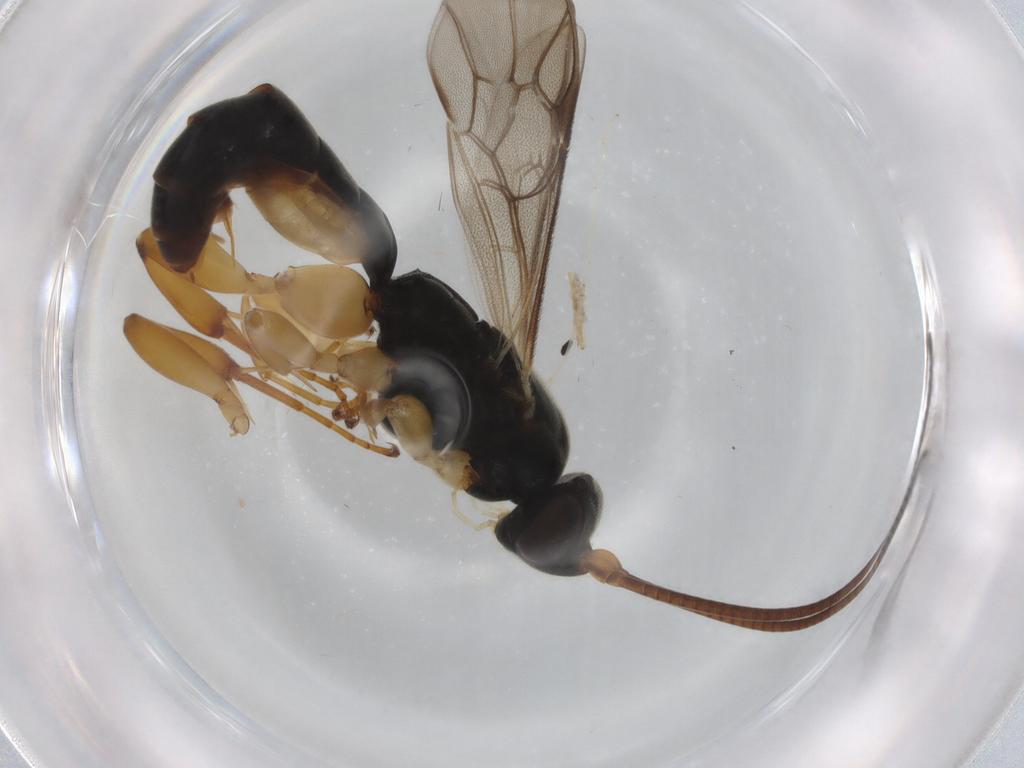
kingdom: Animalia
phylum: Arthropoda
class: Insecta
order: Hymenoptera
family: Ichneumonidae
